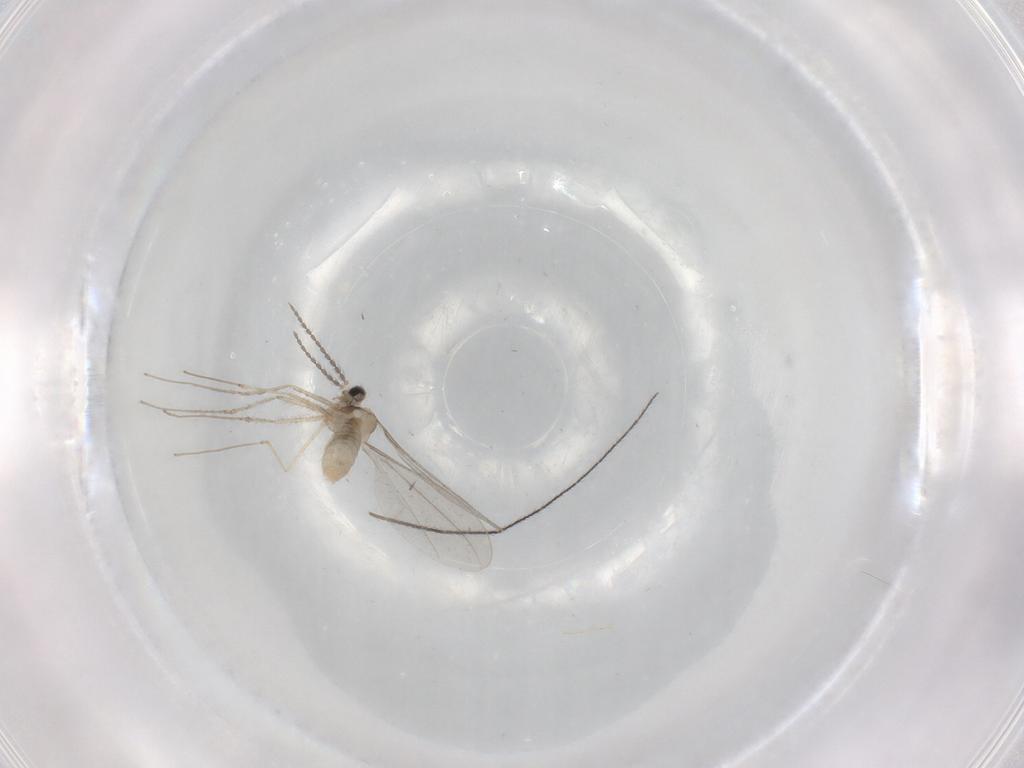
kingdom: Animalia
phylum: Arthropoda
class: Insecta
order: Diptera
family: Cecidomyiidae
